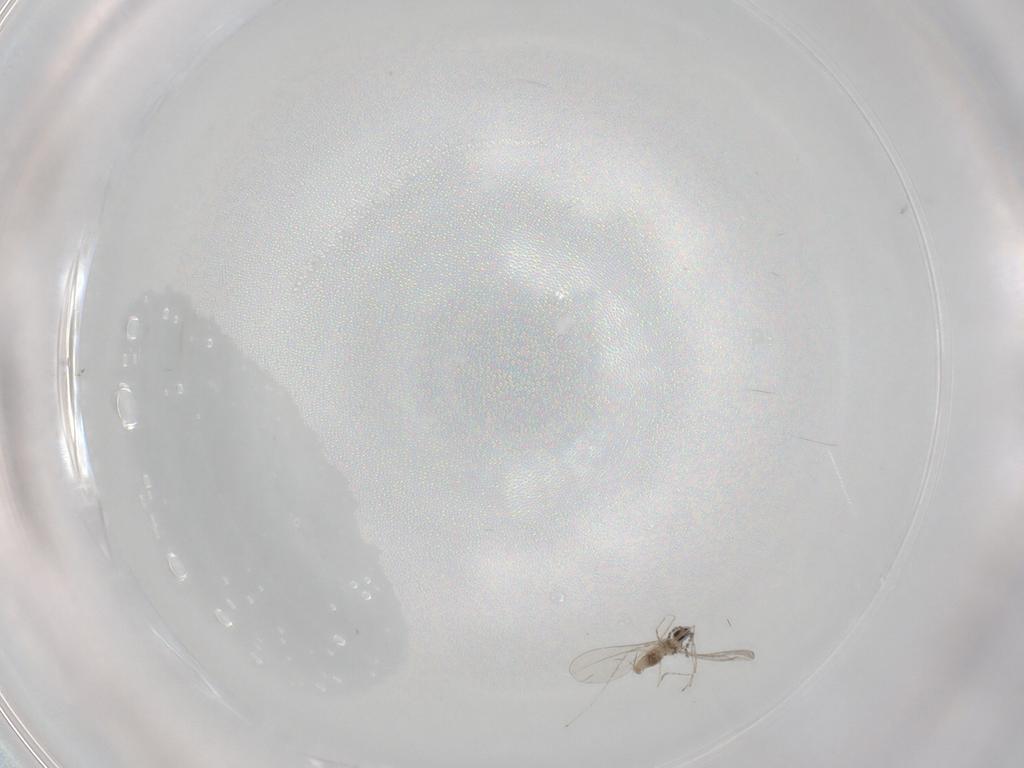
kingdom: Animalia
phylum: Arthropoda
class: Insecta
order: Diptera
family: Cecidomyiidae
